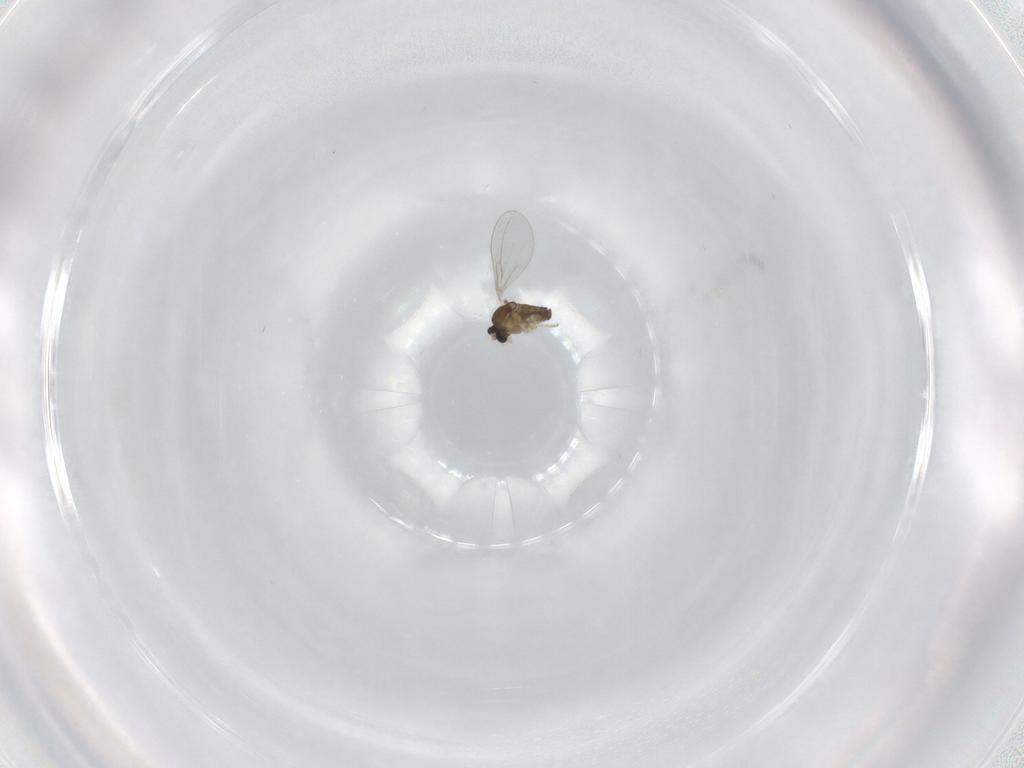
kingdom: Animalia
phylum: Arthropoda
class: Insecta
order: Diptera
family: Cecidomyiidae
